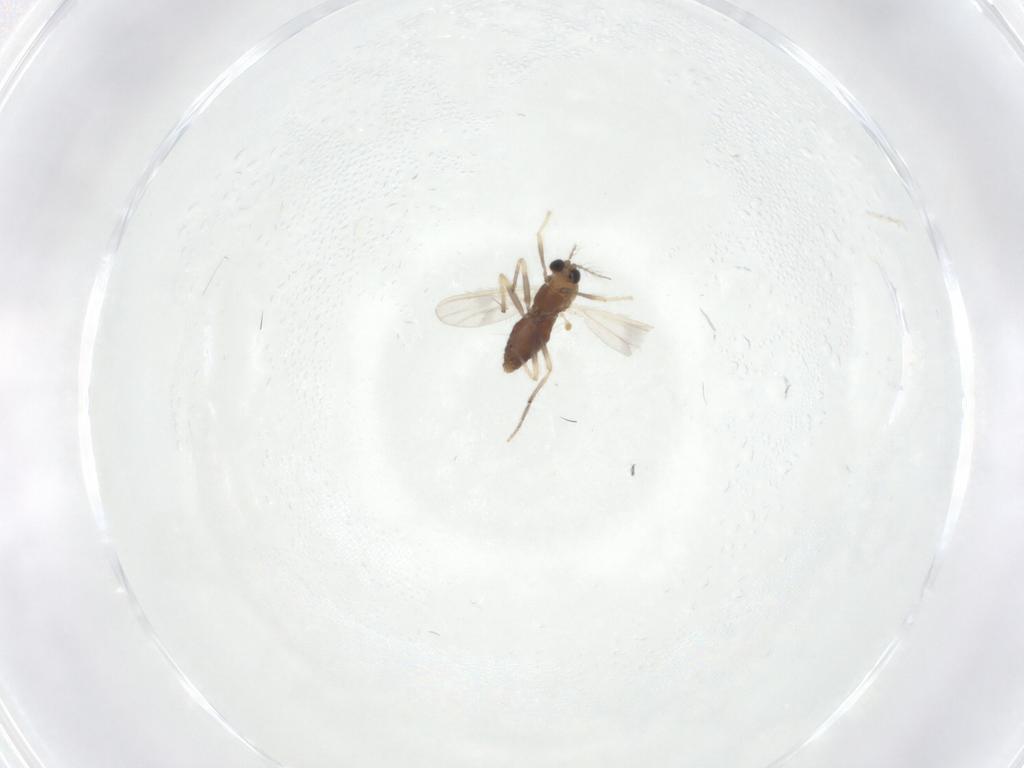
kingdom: Animalia
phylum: Arthropoda
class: Insecta
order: Diptera
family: Chironomidae
